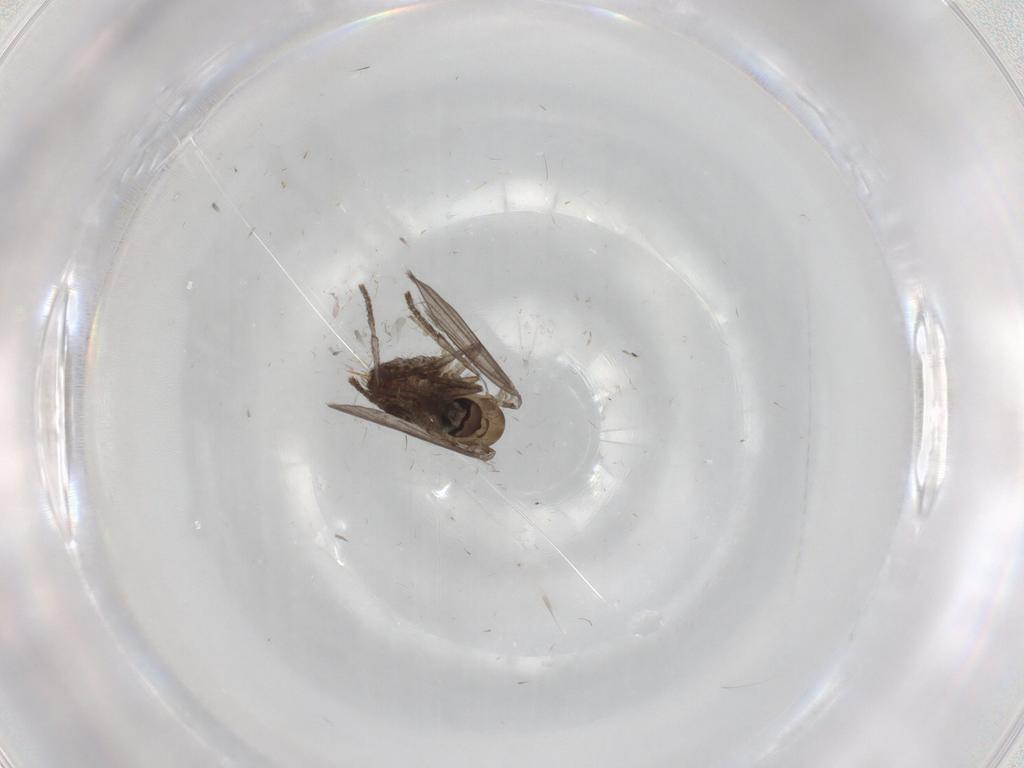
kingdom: Animalia
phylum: Arthropoda
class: Insecta
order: Diptera
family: Psychodidae
